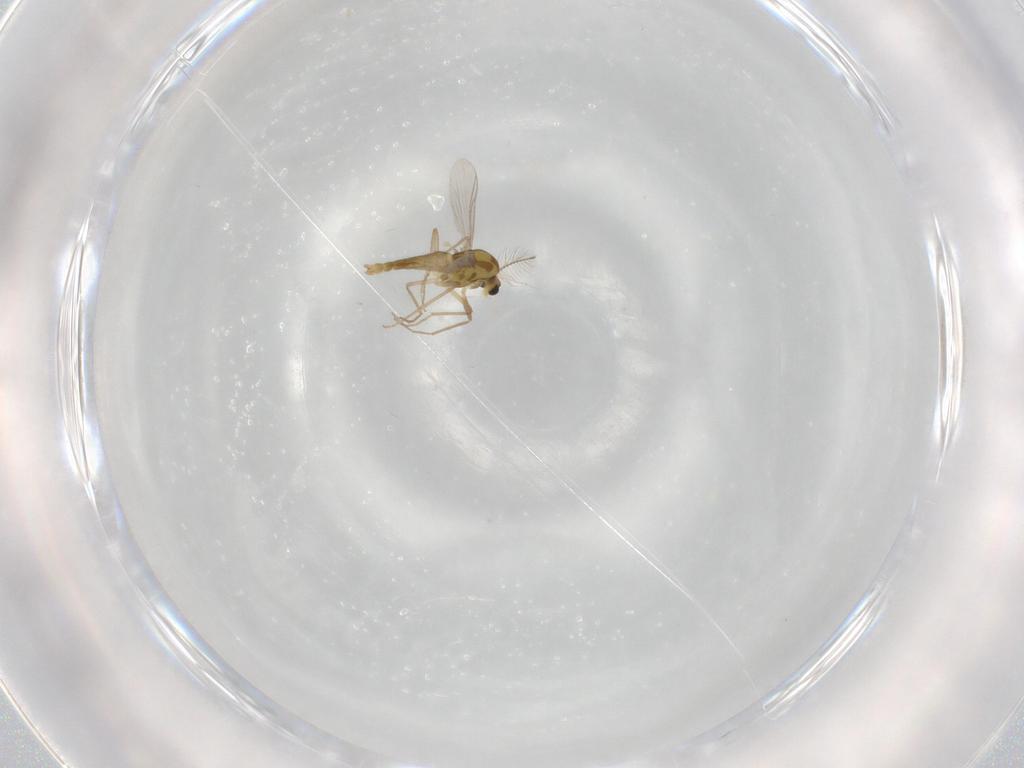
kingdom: Animalia
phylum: Arthropoda
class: Insecta
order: Diptera
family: Chironomidae
